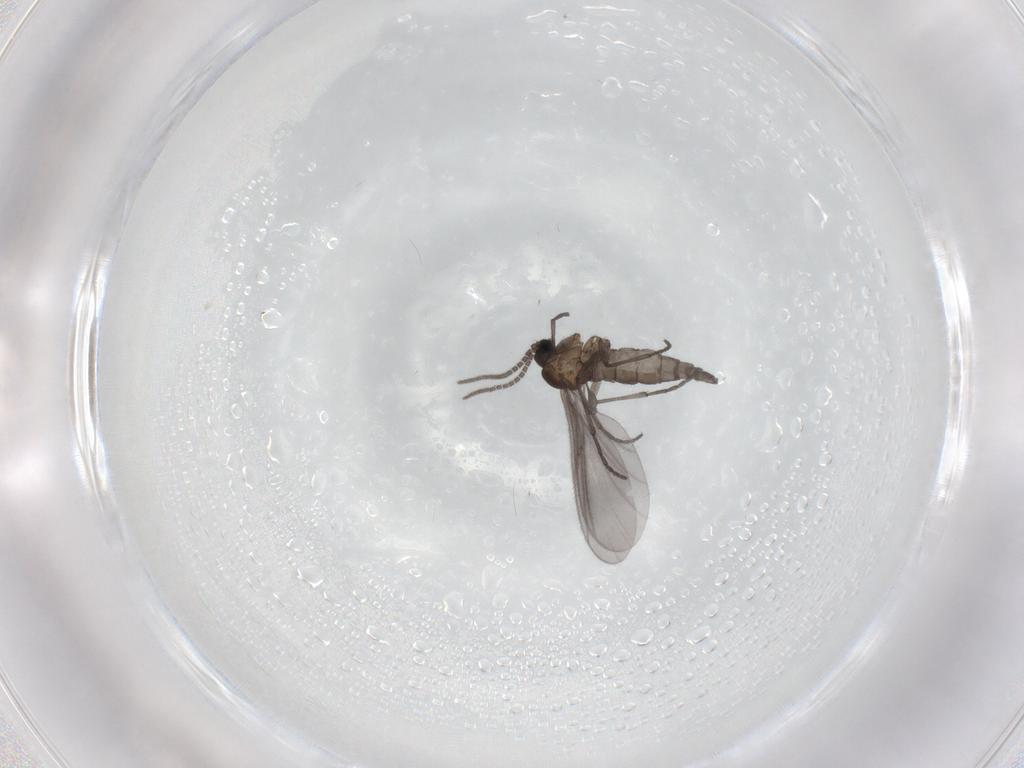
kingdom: Animalia
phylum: Arthropoda
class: Insecta
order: Diptera
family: Sciaridae
